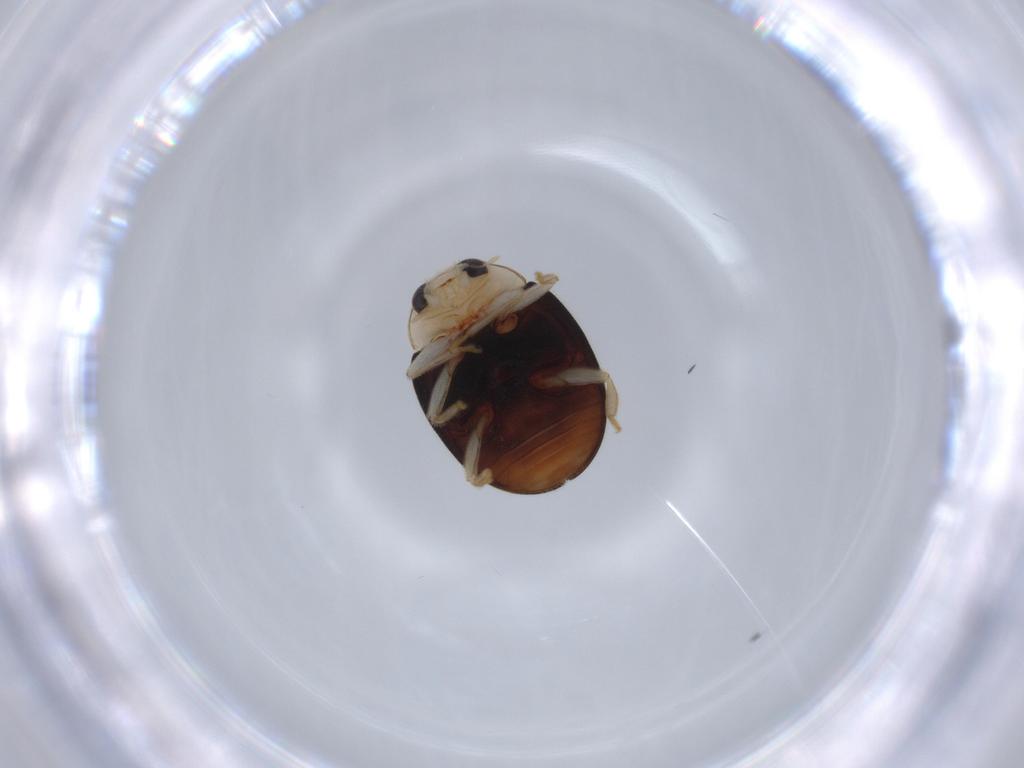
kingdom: Animalia
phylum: Arthropoda
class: Insecta
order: Coleoptera
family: Coccinellidae
